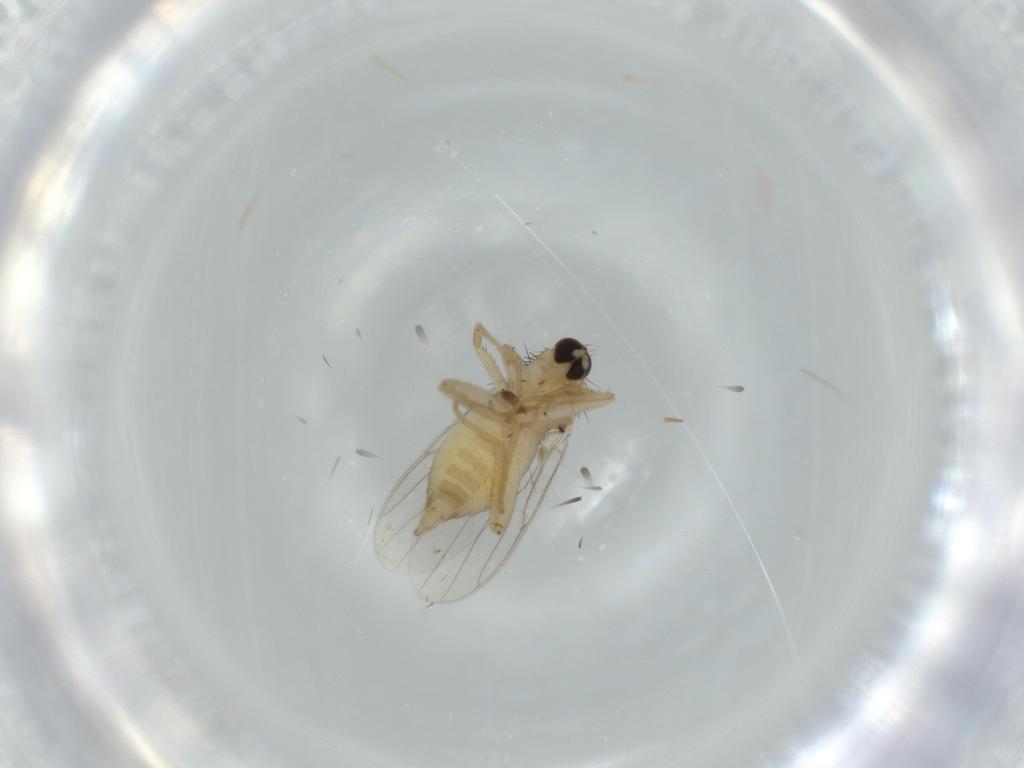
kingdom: Animalia
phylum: Arthropoda
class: Insecta
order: Diptera
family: Hybotidae
